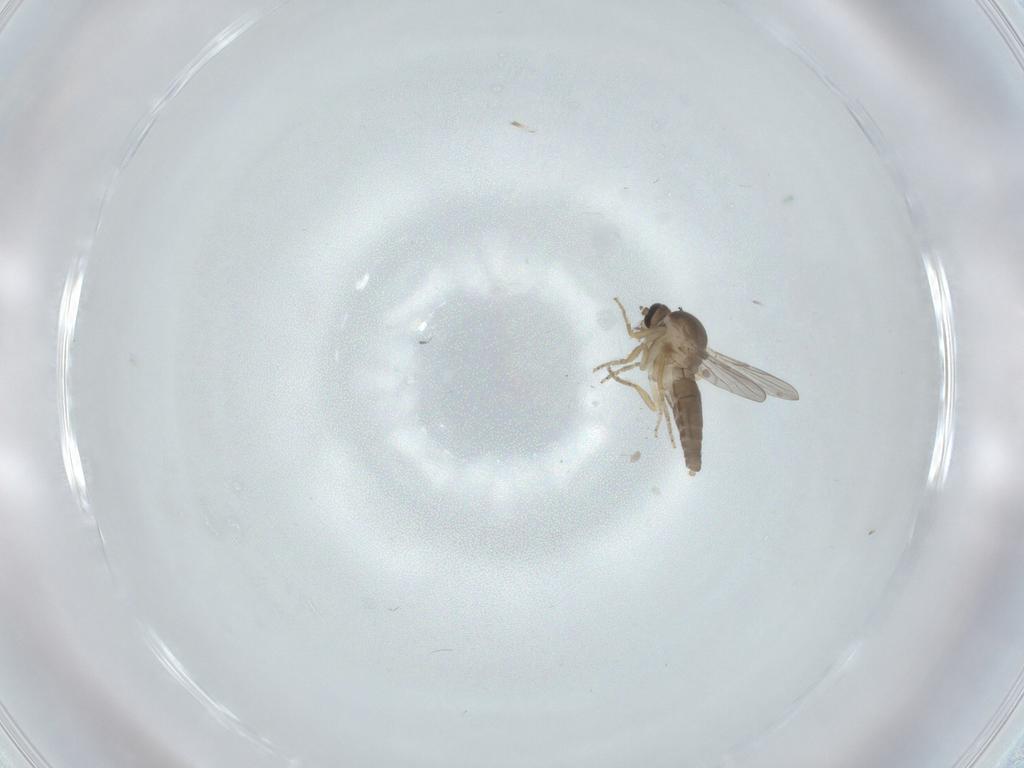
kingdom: Animalia
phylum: Arthropoda
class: Insecta
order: Diptera
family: Ceratopogonidae
